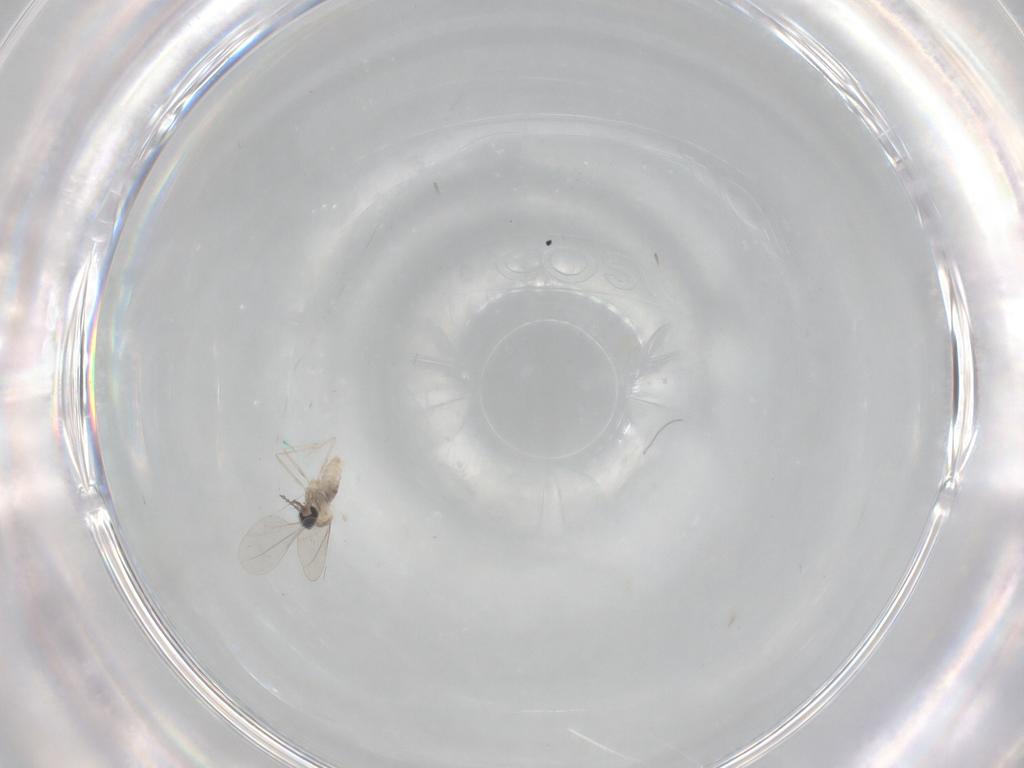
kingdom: Animalia
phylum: Arthropoda
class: Insecta
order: Diptera
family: Cecidomyiidae
